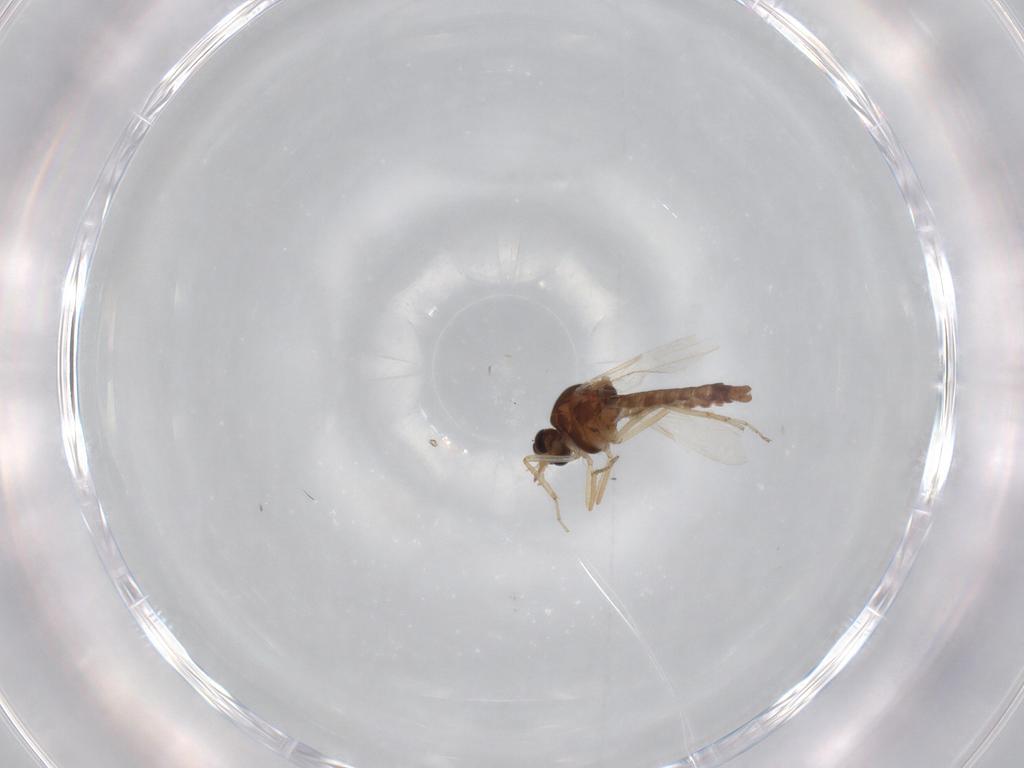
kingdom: Animalia
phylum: Arthropoda
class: Insecta
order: Diptera
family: Ceratopogonidae
